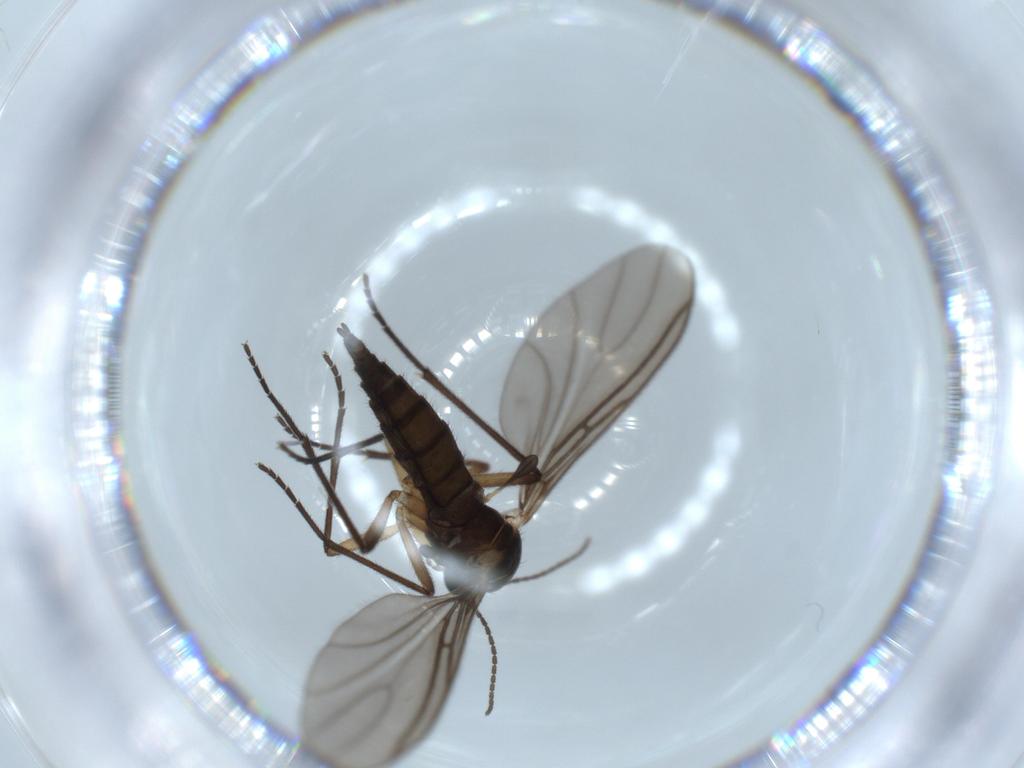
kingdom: Animalia
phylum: Arthropoda
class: Insecta
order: Diptera
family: Sciaridae
